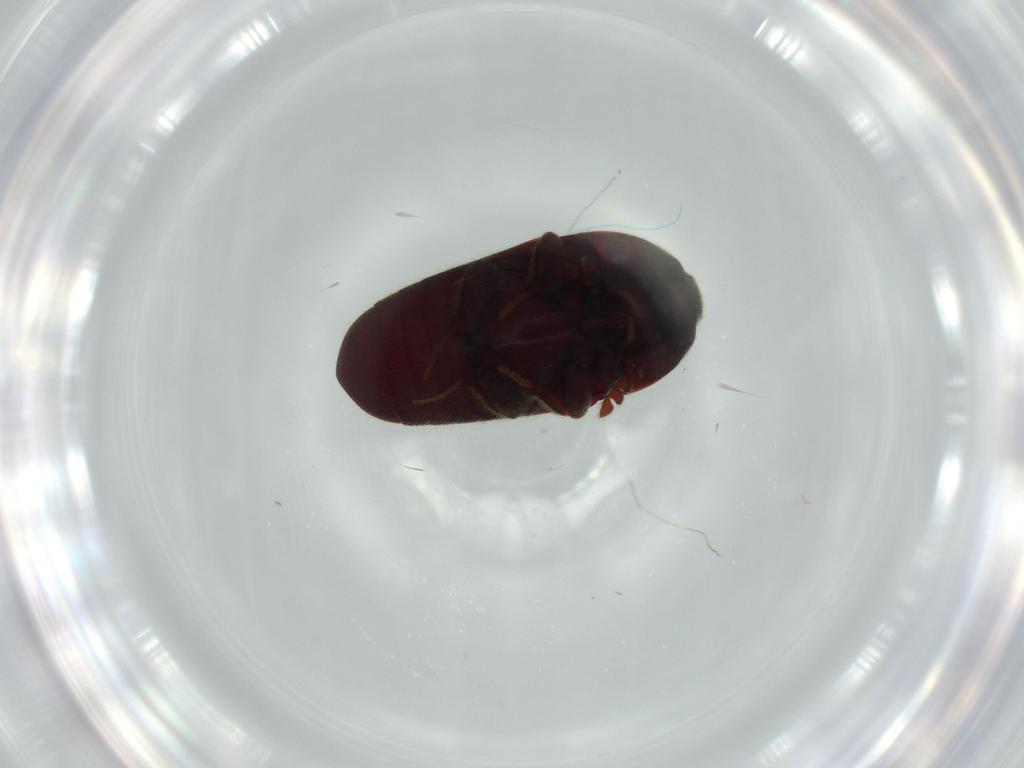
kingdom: Animalia
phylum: Arthropoda
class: Insecta
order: Coleoptera
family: Throscidae
